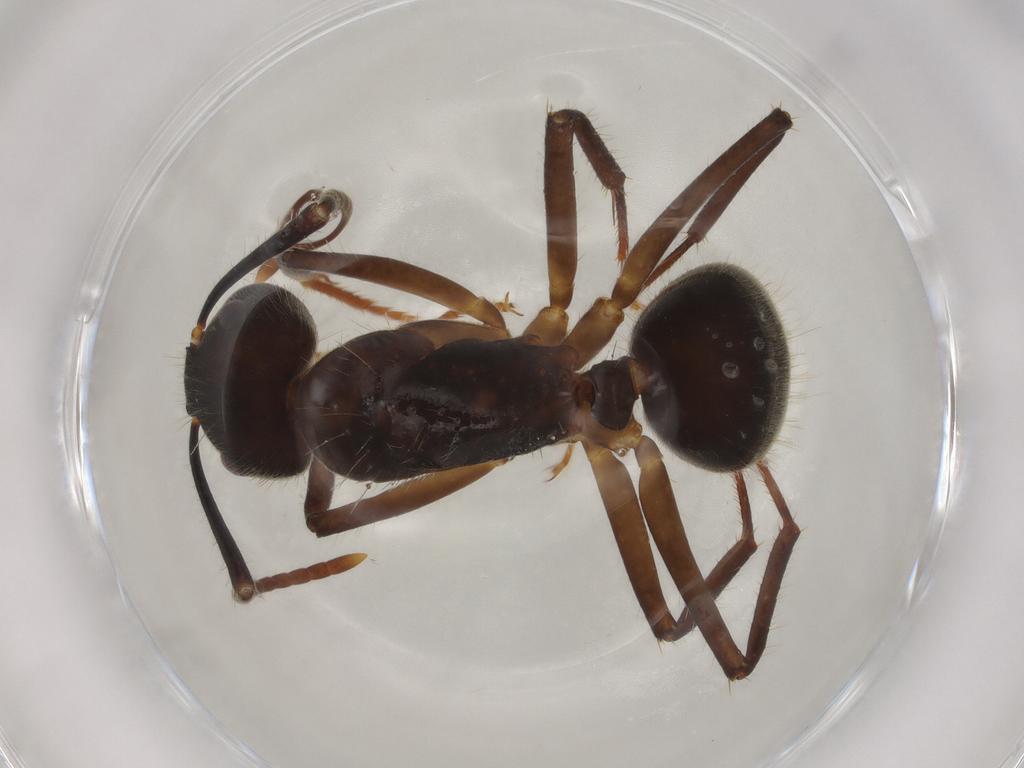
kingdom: Animalia
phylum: Arthropoda
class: Insecta
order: Hymenoptera
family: Formicidae
